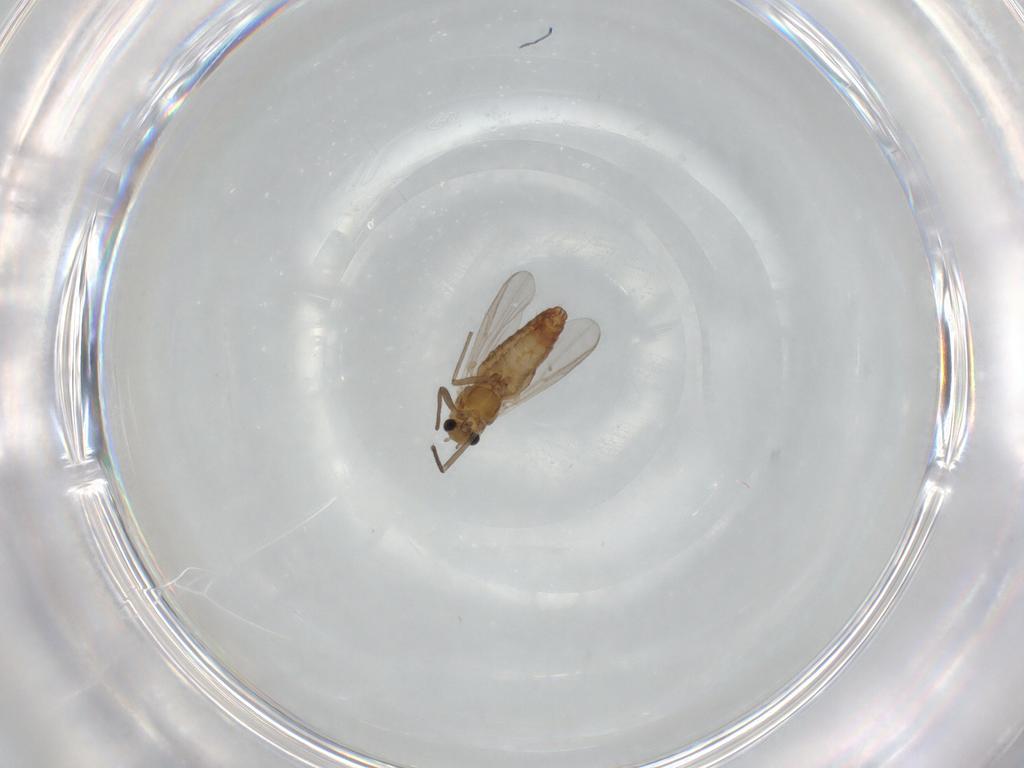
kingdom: Animalia
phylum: Arthropoda
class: Insecta
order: Diptera
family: Chironomidae
